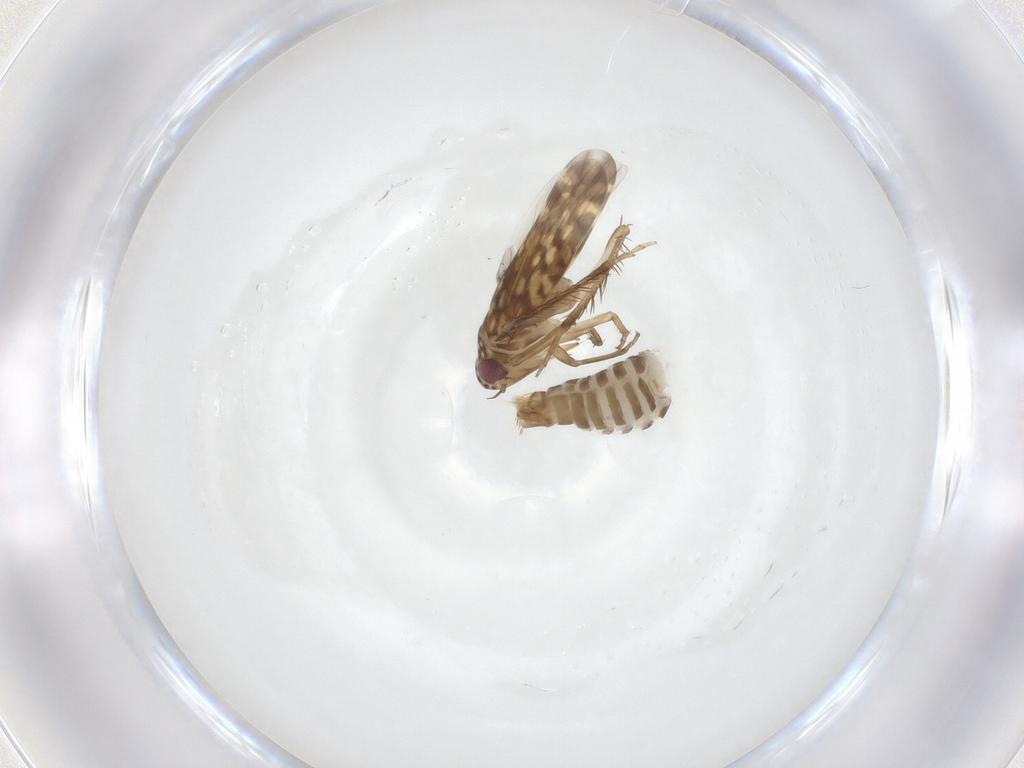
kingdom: Animalia
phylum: Arthropoda
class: Insecta
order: Hemiptera
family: Cicadellidae
